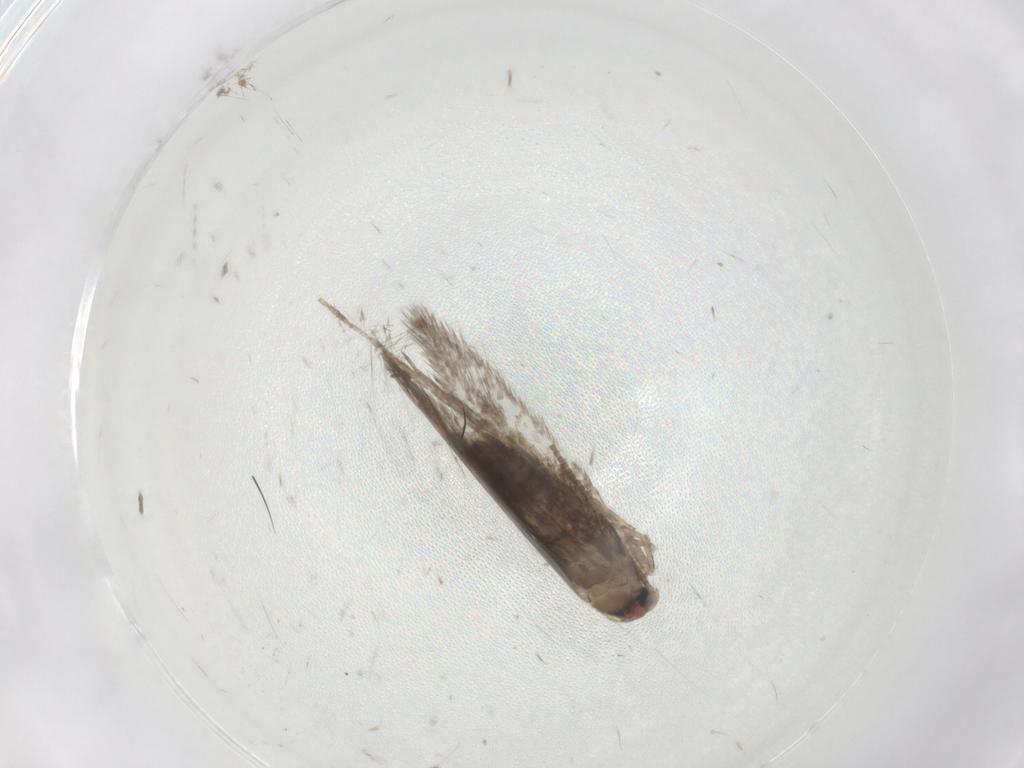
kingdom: Animalia
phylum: Arthropoda
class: Insecta
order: Lepidoptera
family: Nepticulidae
